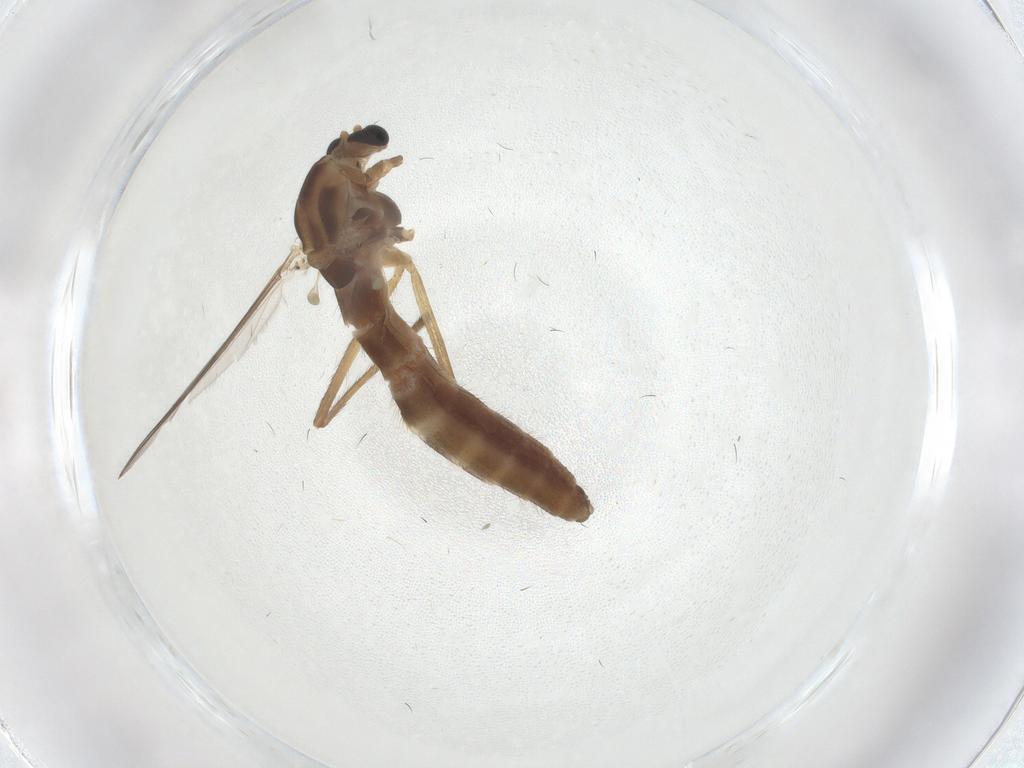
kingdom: Animalia
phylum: Arthropoda
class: Insecta
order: Diptera
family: Chironomidae
